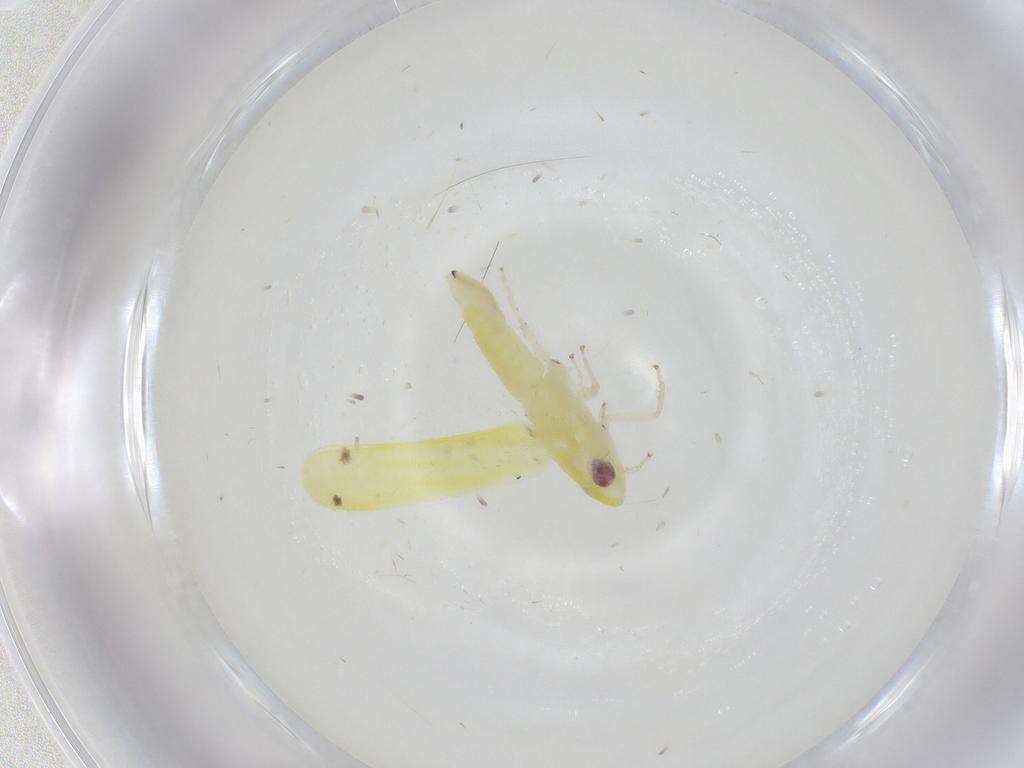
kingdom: Animalia
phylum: Arthropoda
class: Insecta
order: Hemiptera
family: Cicadellidae
